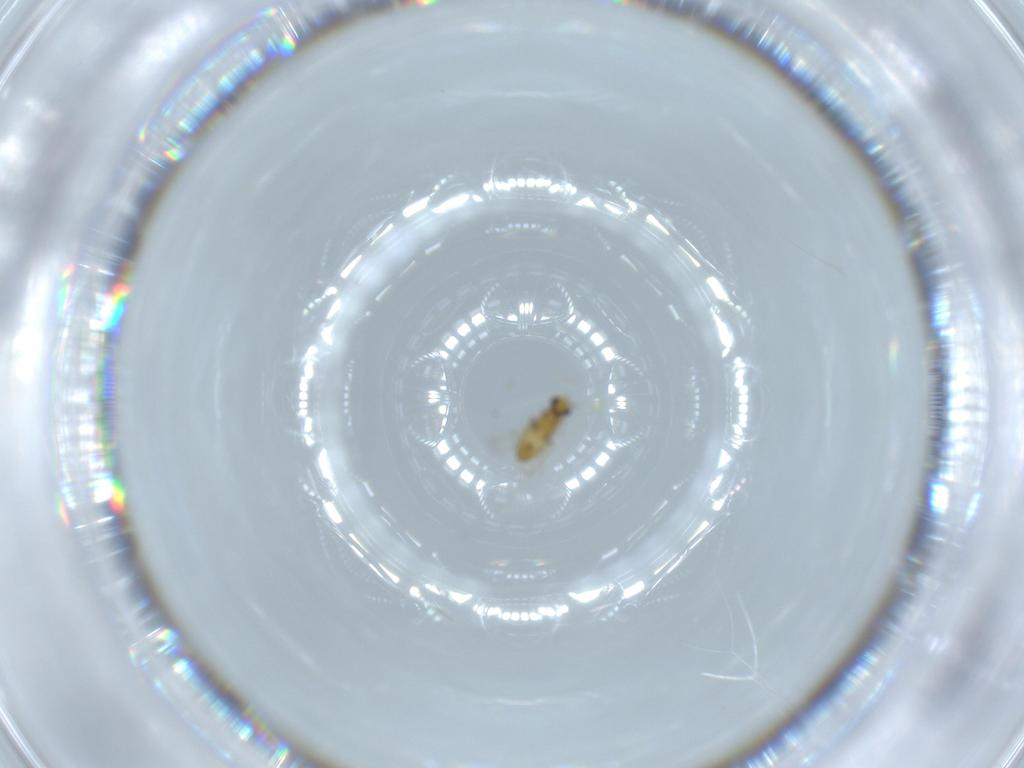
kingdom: Animalia
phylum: Arthropoda
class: Insecta
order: Hymenoptera
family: Trichogrammatidae
